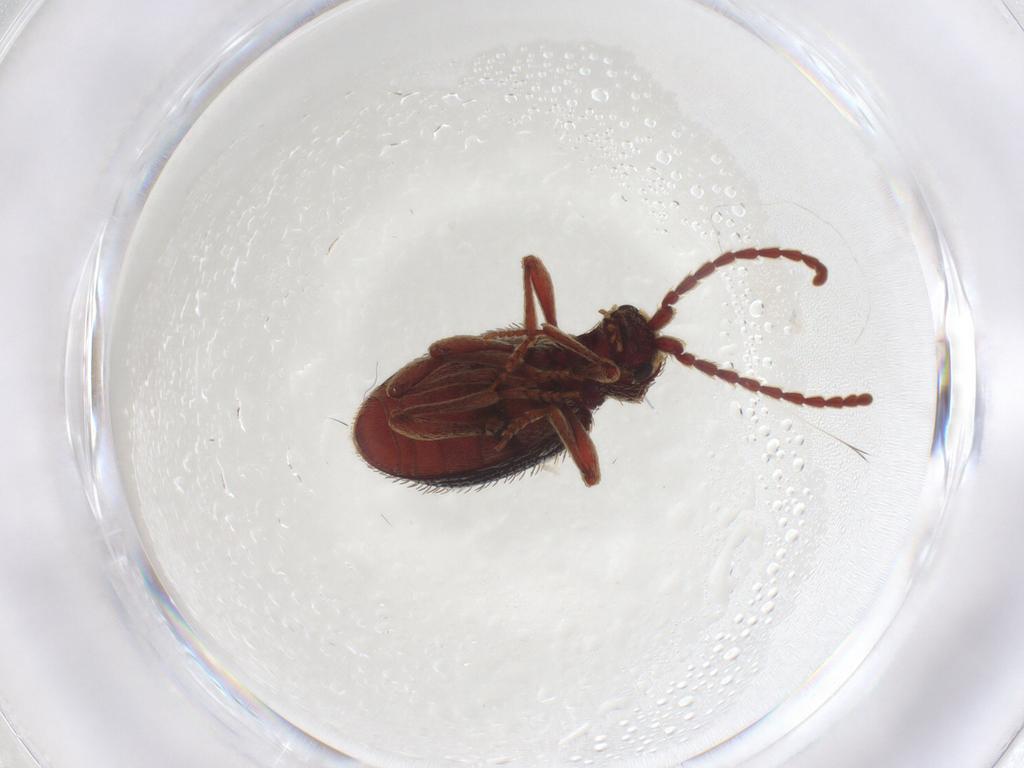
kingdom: Animalia
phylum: Arthropoda
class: Insecta
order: Coleoptera
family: Ptinidae
